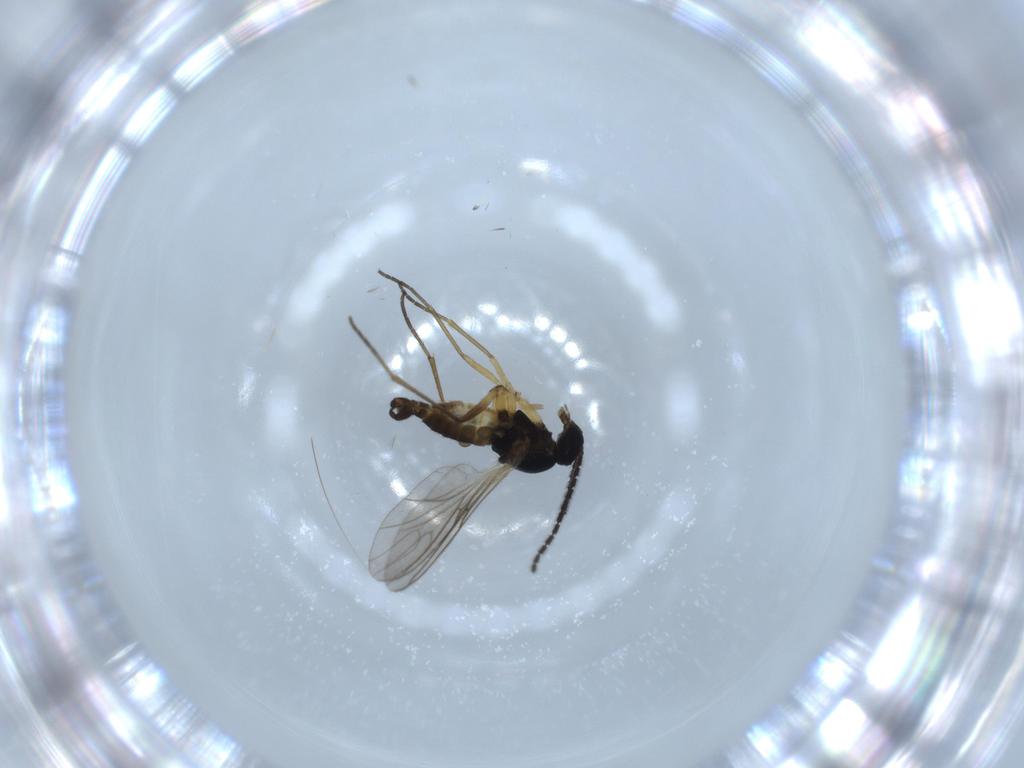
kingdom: Animalia
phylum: Arthropoda
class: Insecta
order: Diptera
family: Sciaridae
